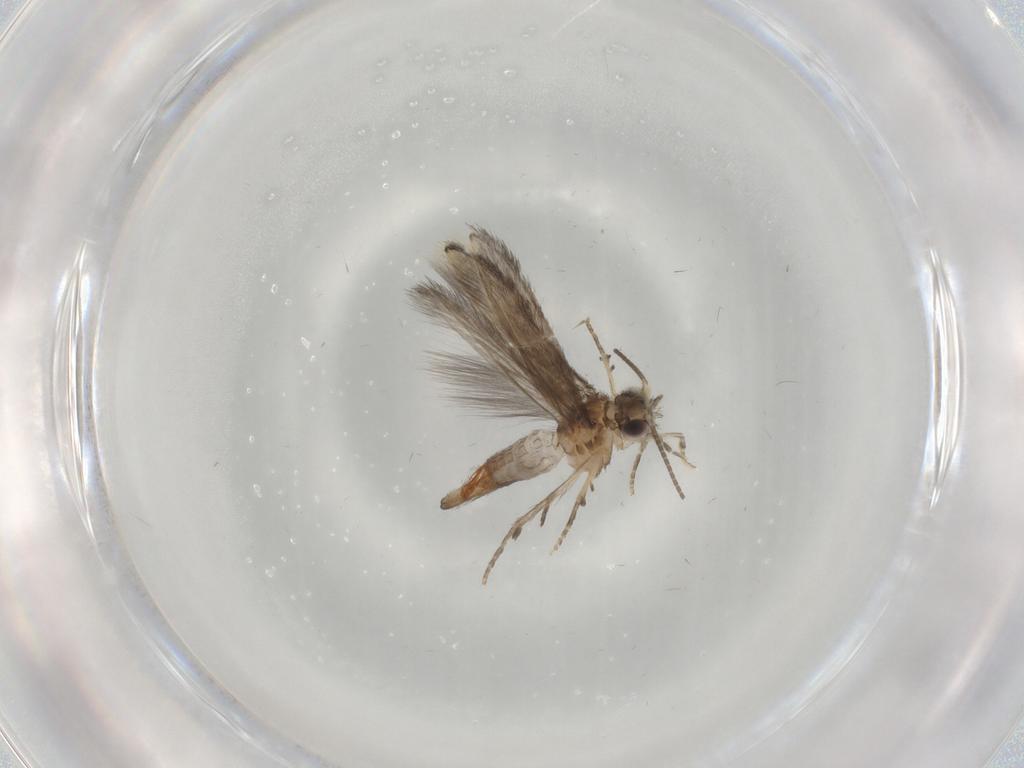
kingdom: Animalia
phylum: Arthropoda
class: Insecta
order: Trichoptera
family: Hydroptilidae
